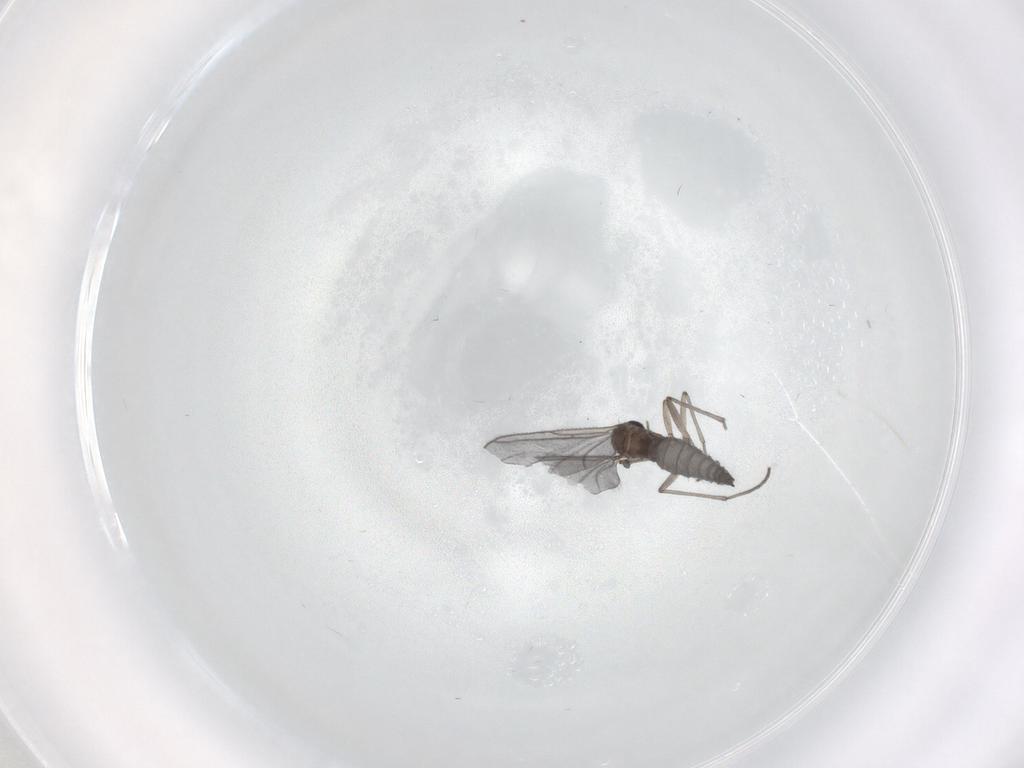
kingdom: Animalia
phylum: Arthropoda
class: Insecta
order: Diptera
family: Sciaridae
